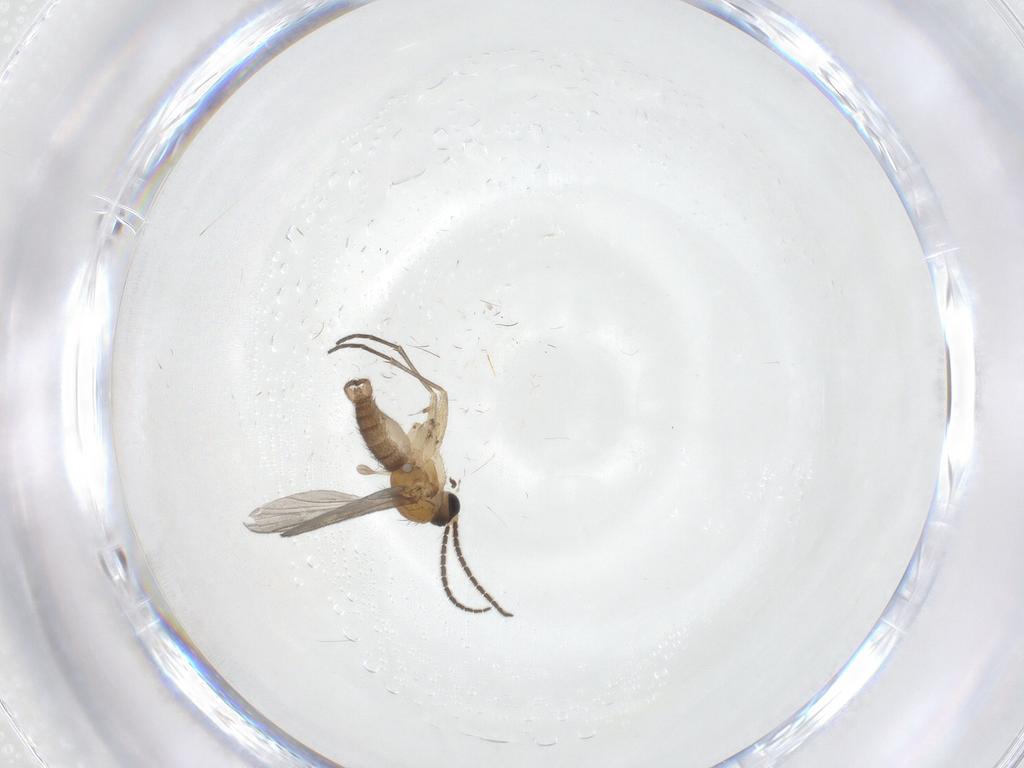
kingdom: Animalia
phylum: Arthropoda
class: Insecta
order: Diptera
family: Sciaridae
